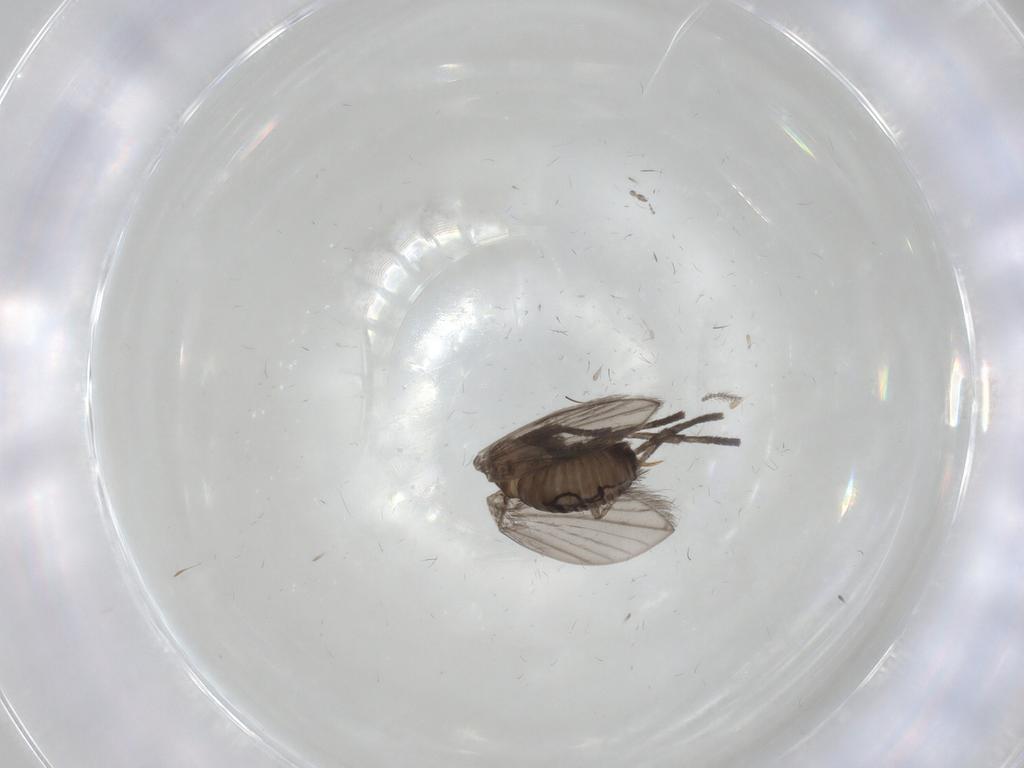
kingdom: Animalia
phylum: Arthropoda
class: Insecta
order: Diptera
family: Psychodidae
